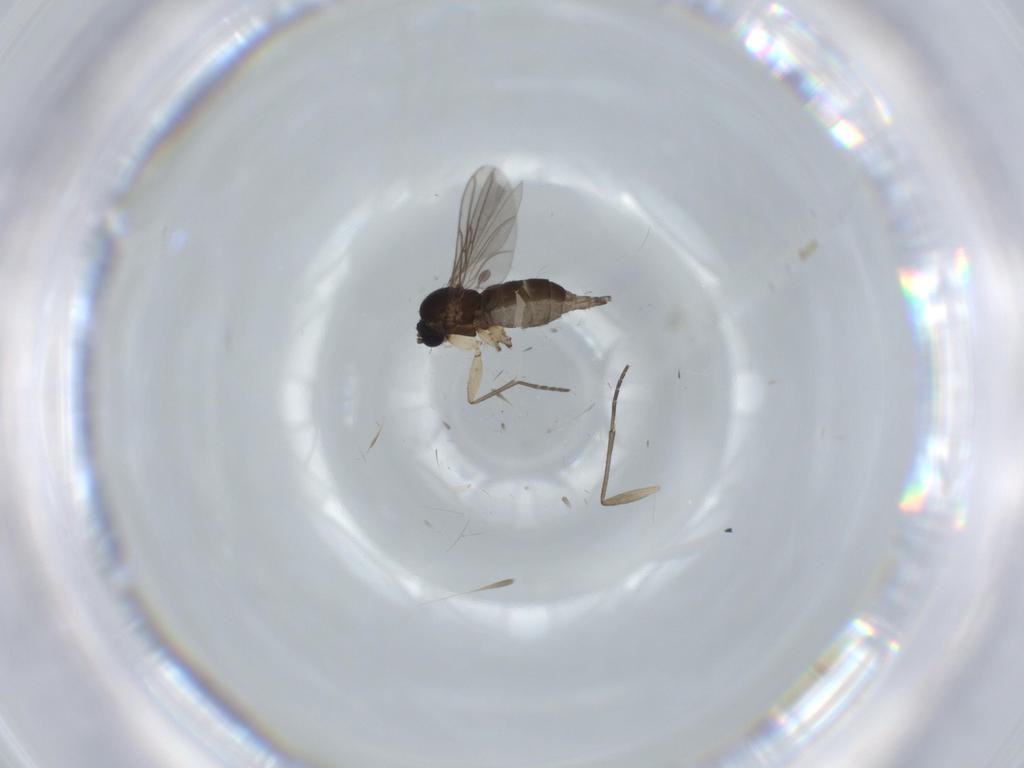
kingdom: Animalia
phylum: Arthropoda
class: Insecta
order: Diptera
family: Sciaridae
